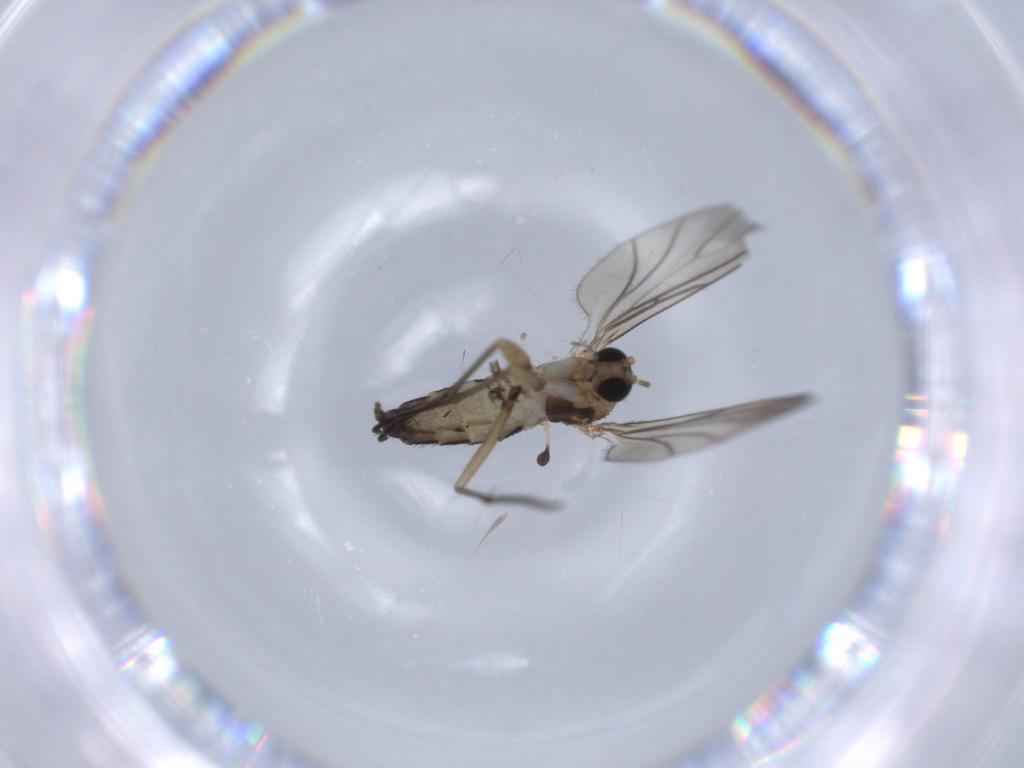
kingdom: Animalia
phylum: Arthropoda
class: Insecta
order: Diptera
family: Sciaridae
